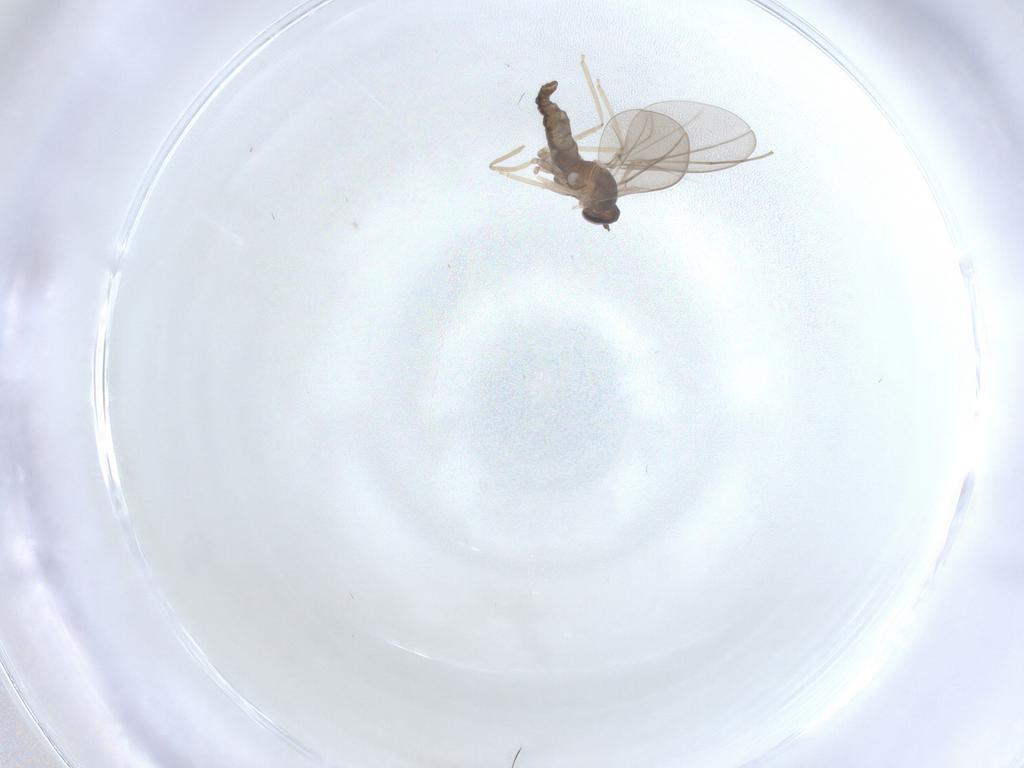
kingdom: Animalia
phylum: Arthropoda
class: Insecta
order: Diptera
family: Cecidomyiidae
